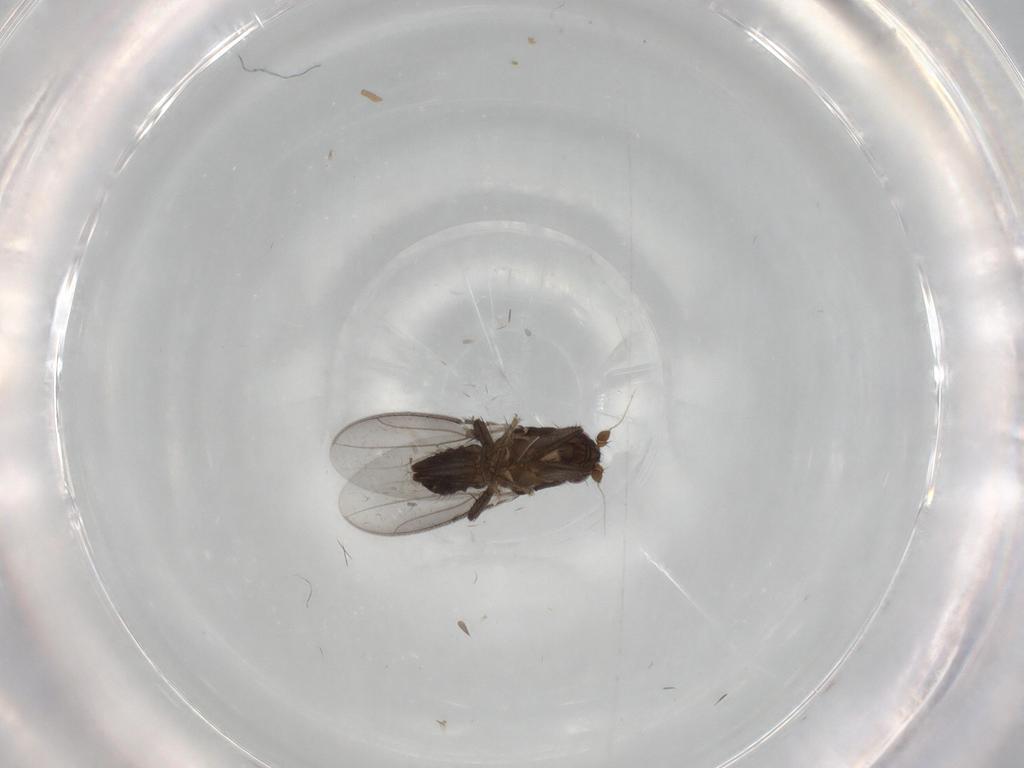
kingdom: Animalia
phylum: Arthropoda
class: Insecta
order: Diptera
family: Sphaeroceridae
